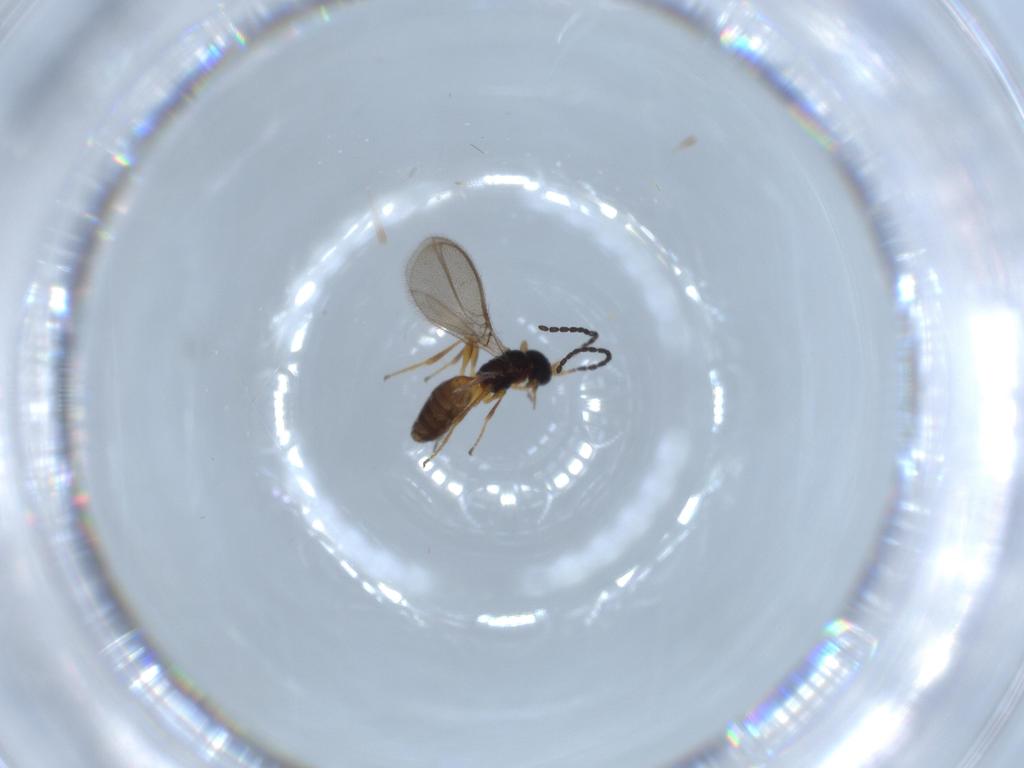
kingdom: Animalia
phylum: Arthropoda
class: Insecta
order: Hymenoptera
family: Braconidae
